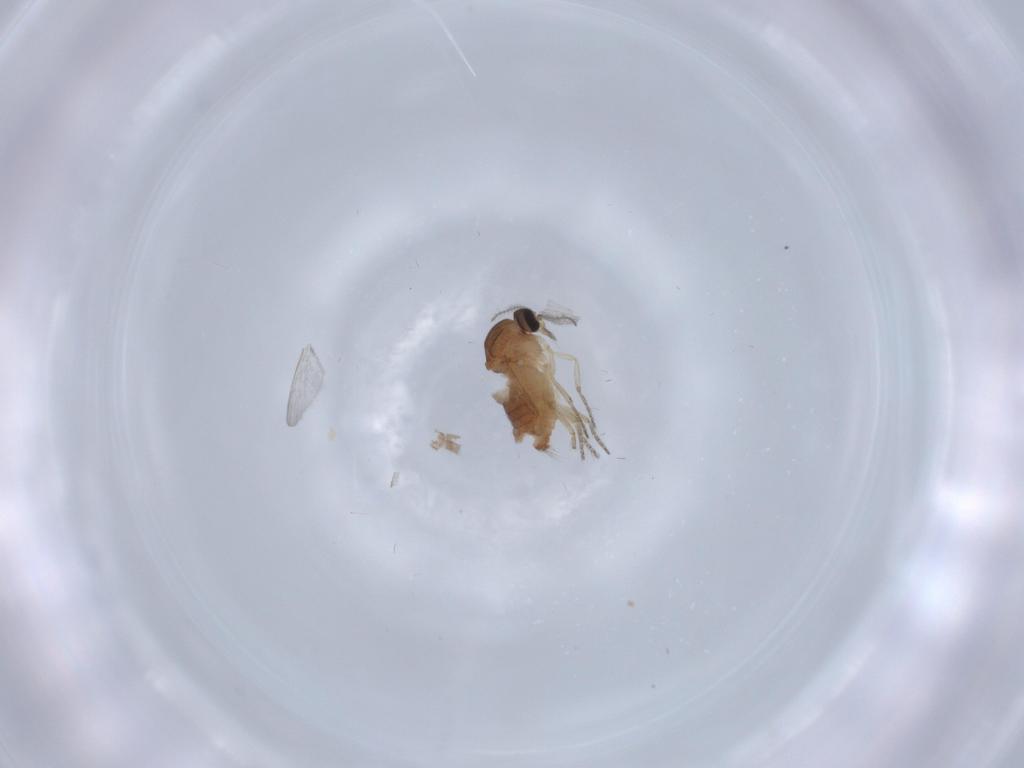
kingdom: Animalia
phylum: Arthropoda
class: Insecta
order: Diptera
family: Ceratopogonidae
